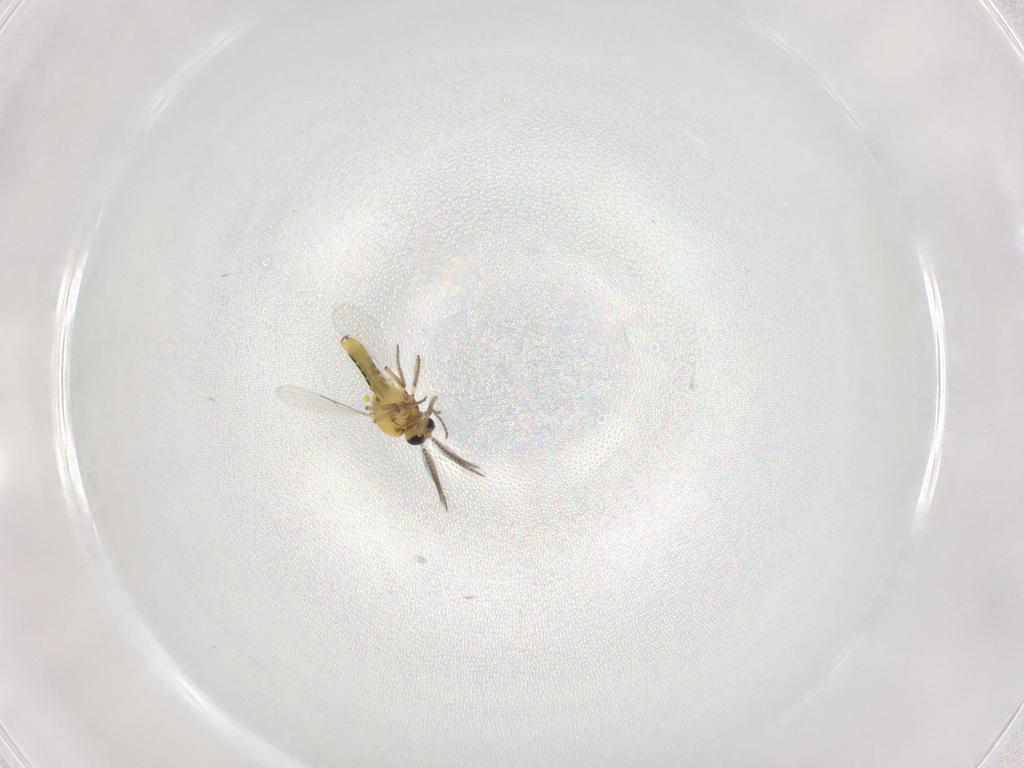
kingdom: Animalia
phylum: Arthropoda
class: Insecta
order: Diptera
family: Ceratopogonidae
